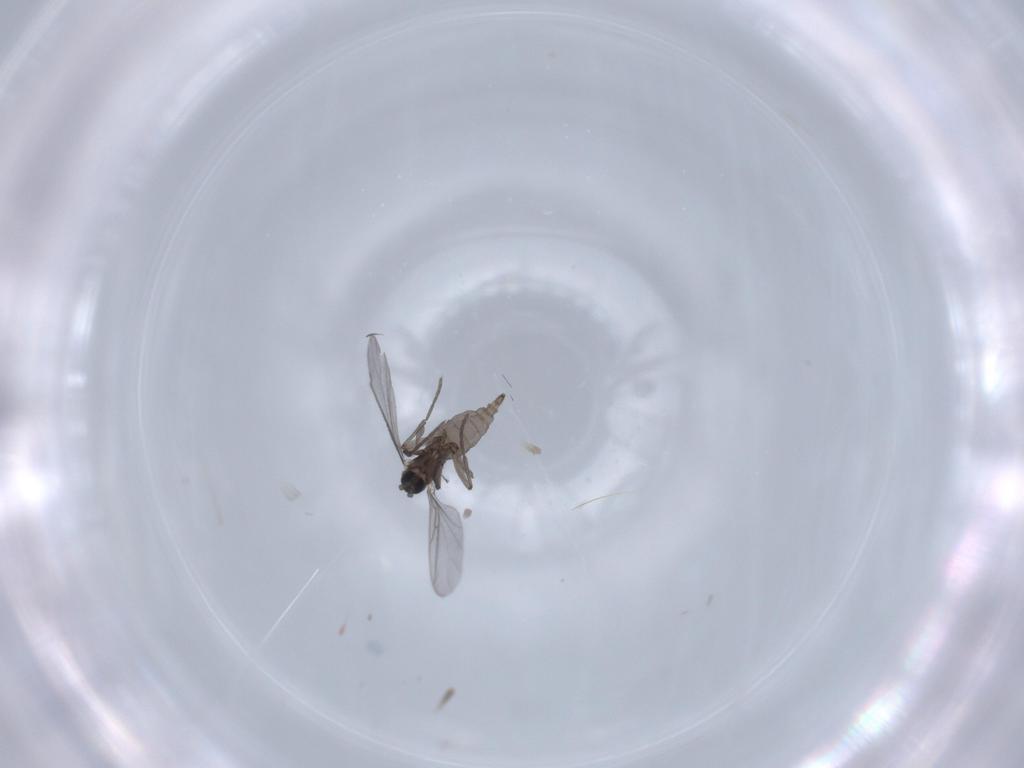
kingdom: Animalia
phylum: Arthropoda
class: Insecta
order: Diptera
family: Sciaridae
